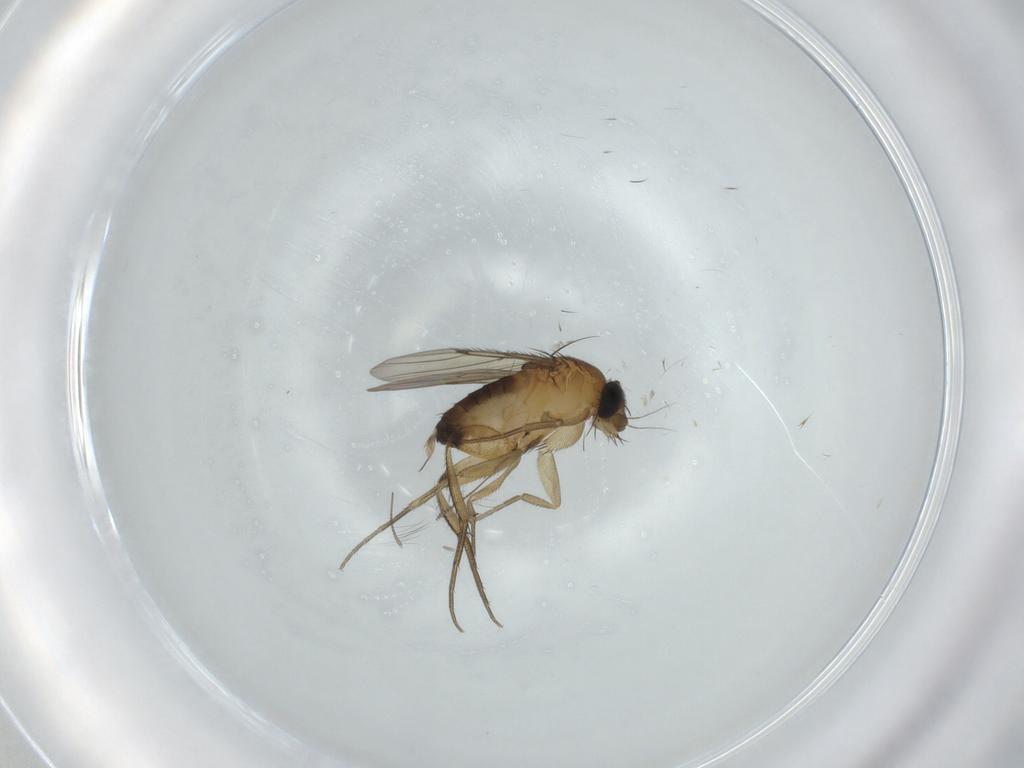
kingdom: Animalia
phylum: Arthropoda
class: Insecta
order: Diptera
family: Phoridae
